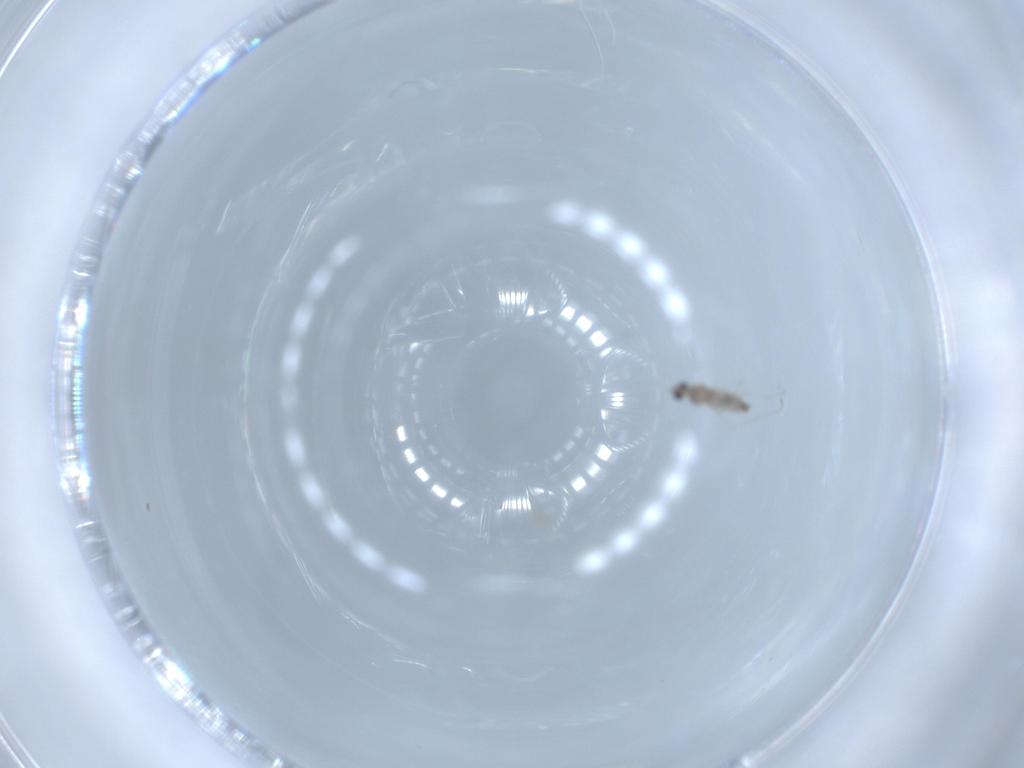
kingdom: Animalia
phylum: Arthropoda
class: Insecta
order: Diptera
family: Cecidomyiidae
